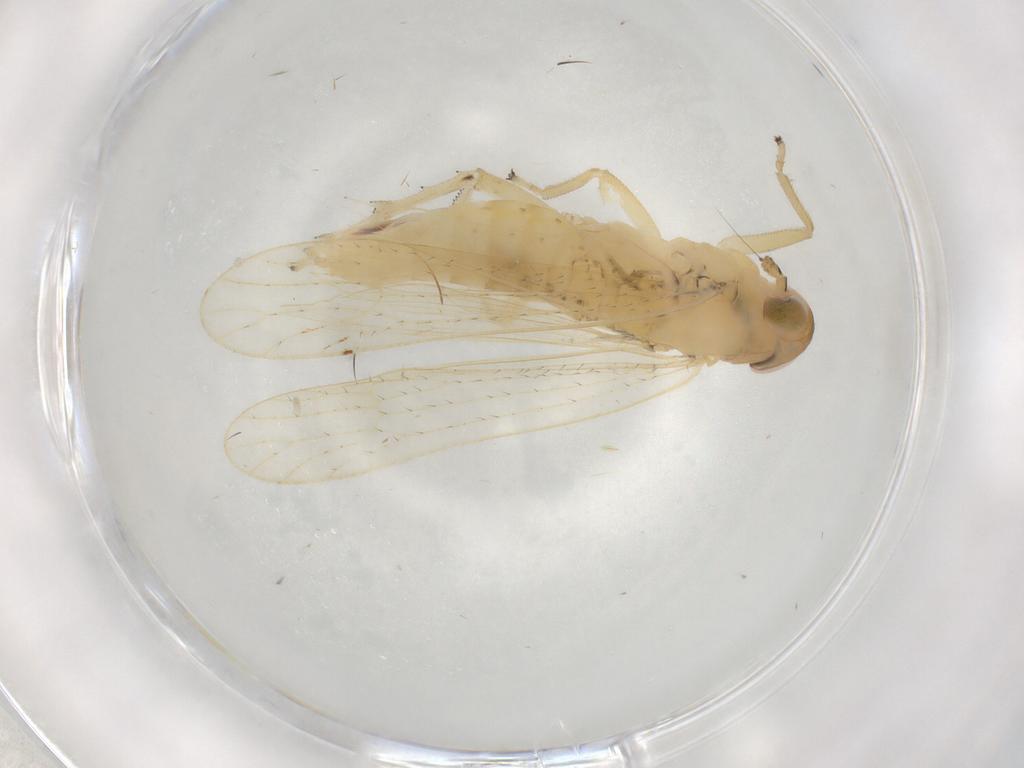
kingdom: Animalia
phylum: Arthropoda
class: Insecta
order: Hemiptera
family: Delphacidae
